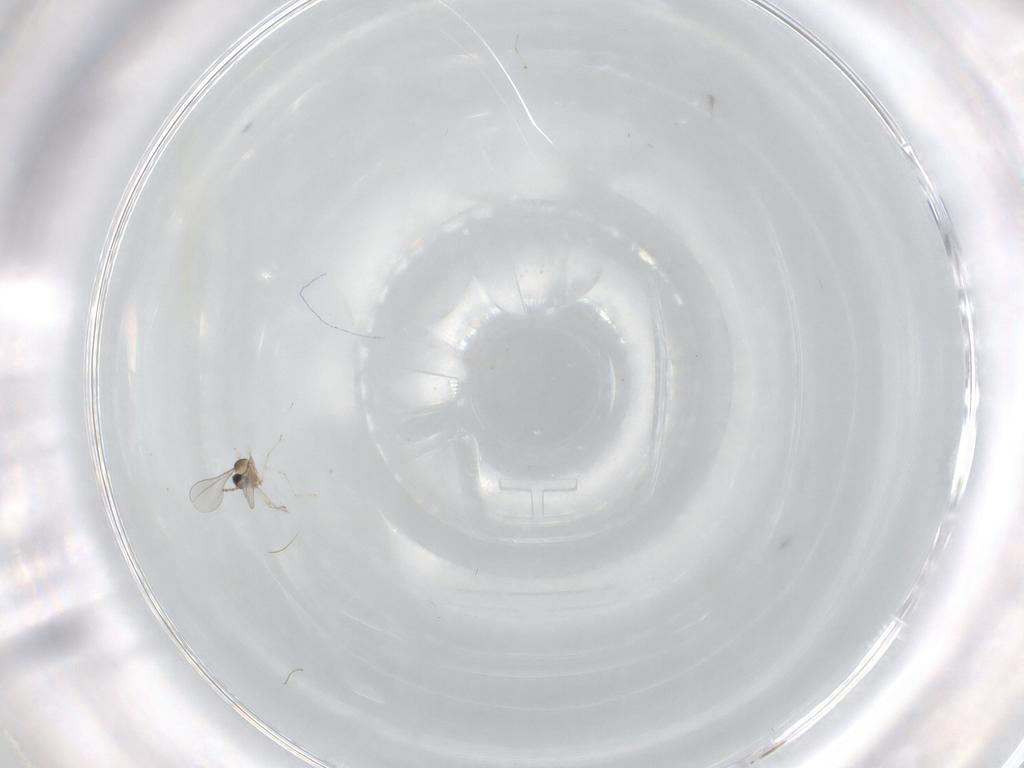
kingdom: Animalia
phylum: Arthropoda
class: Insecta
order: Diptera
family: Cecidomyiidae
